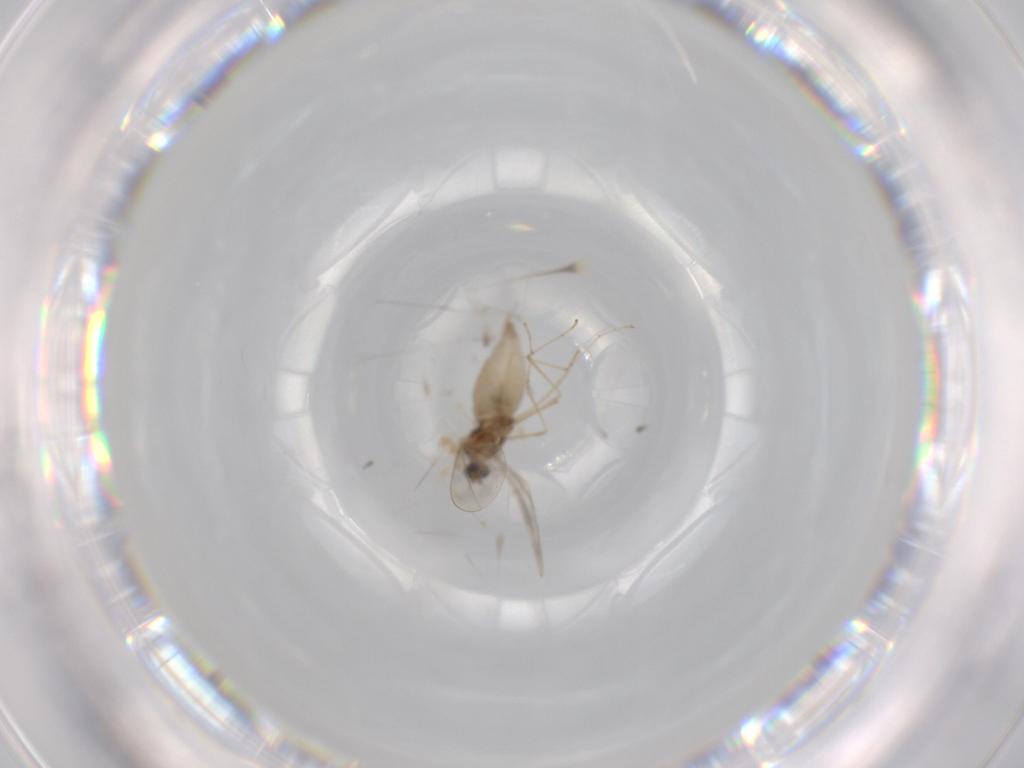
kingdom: Animalia
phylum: Arthropoda
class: Insecta
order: Diptera
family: Cecidomyiidae
